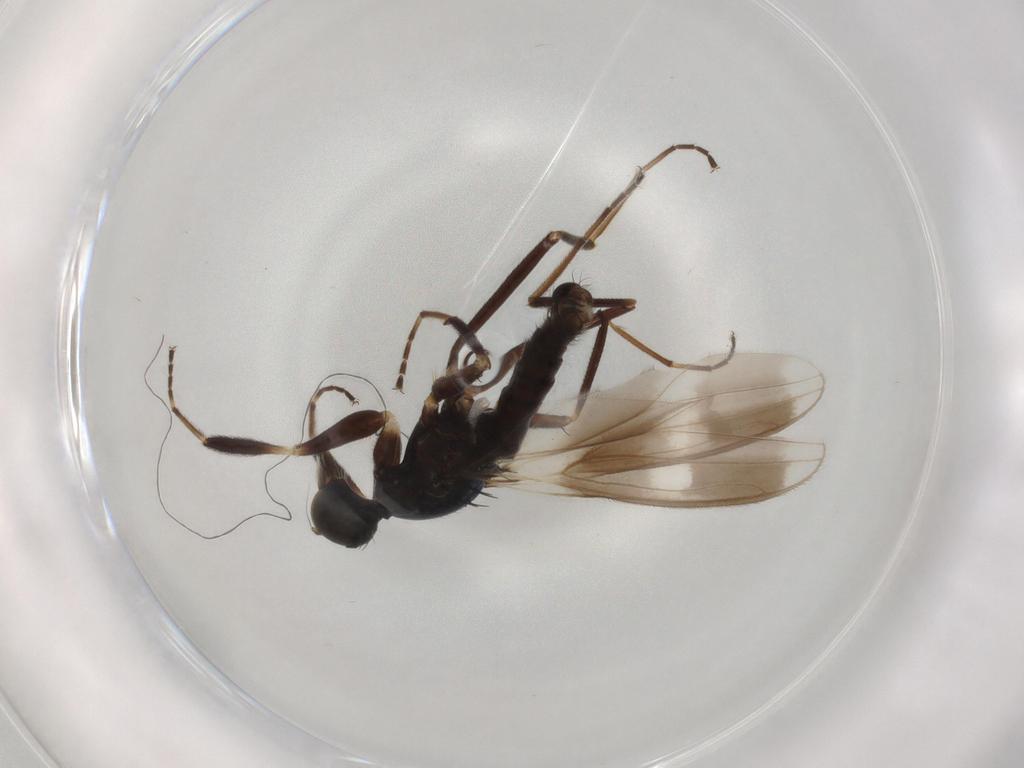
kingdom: Animalia
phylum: Arthropoda
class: Insecta
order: Diptera
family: Hybotidae
